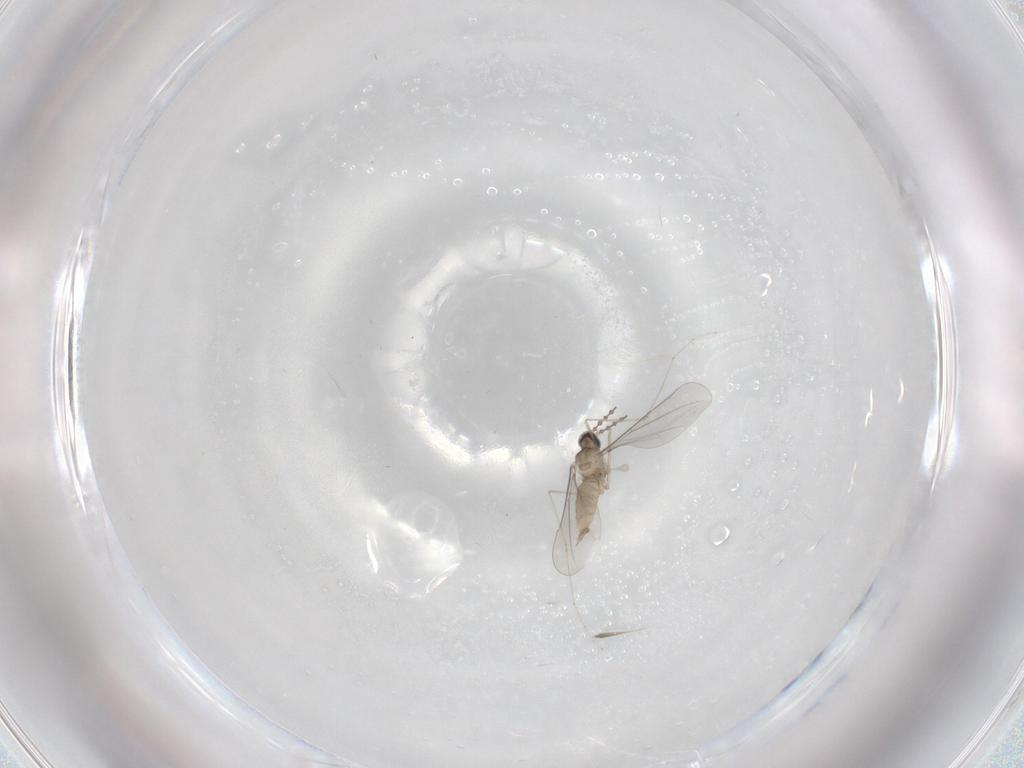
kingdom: Animalia
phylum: Arthropoda
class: Insecta
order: Diptera
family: Cecidomyiidae
